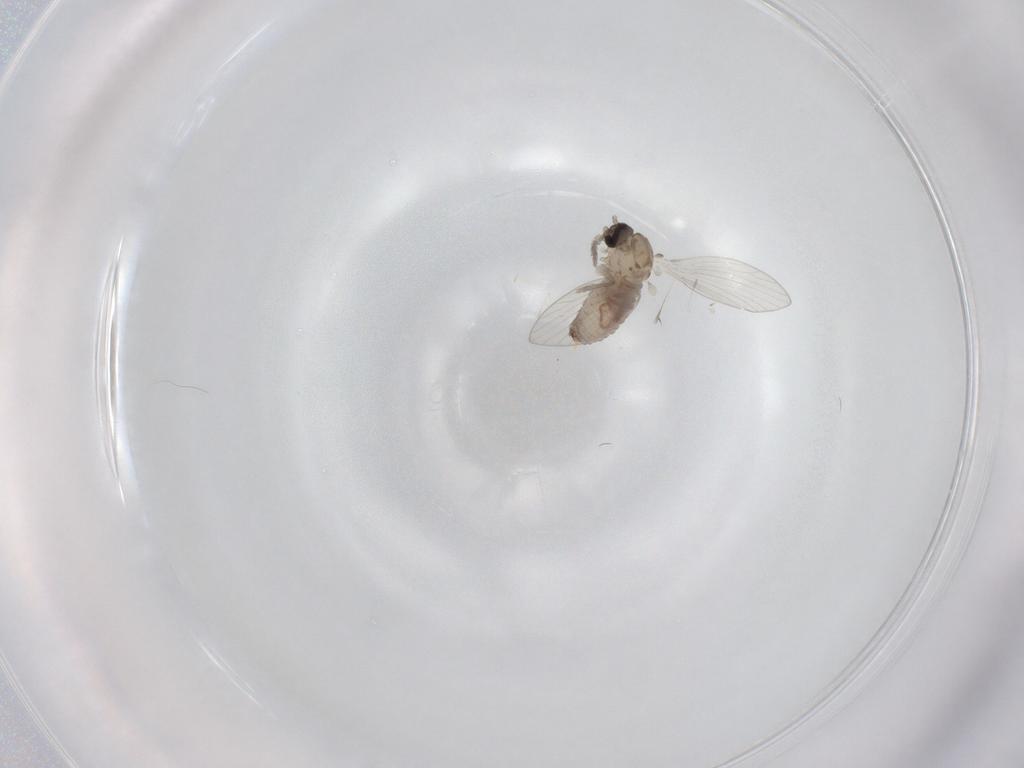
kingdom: Animalia
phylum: Arthropoda
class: Insecta
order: Diptera
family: Psychodidae
